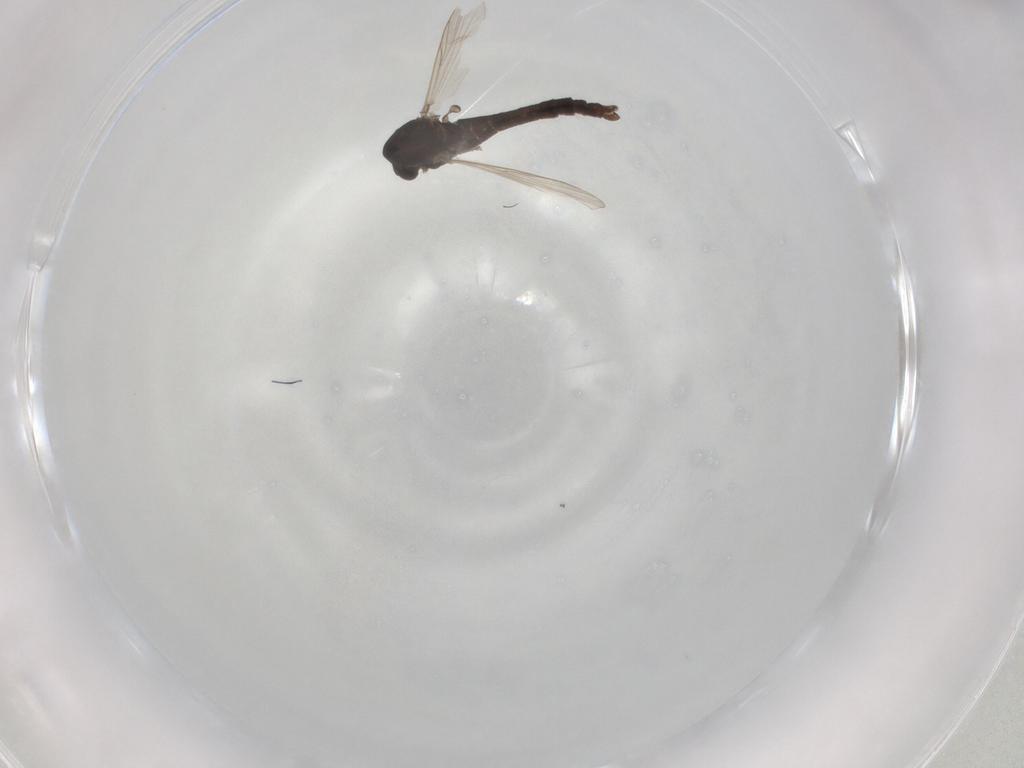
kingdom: Animalia
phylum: Arthropoda
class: Insecta
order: Diptera
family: Chironomidae
